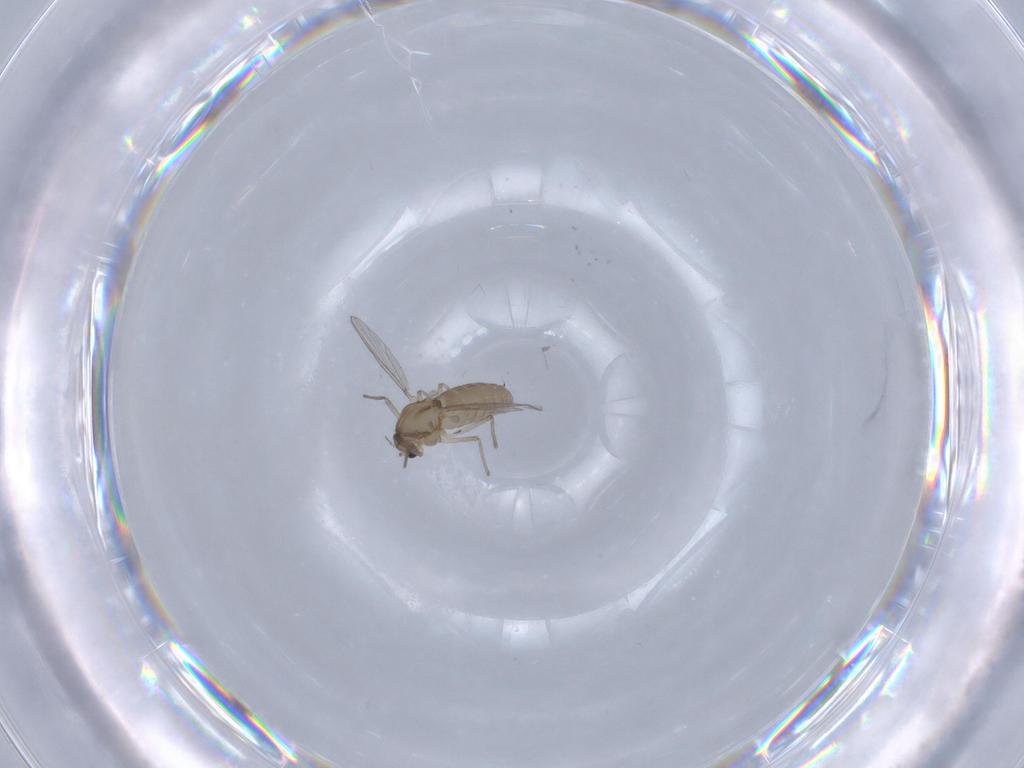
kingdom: Animalia
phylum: Arthropoda
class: Insecta
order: Diptera
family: Chironomidae
